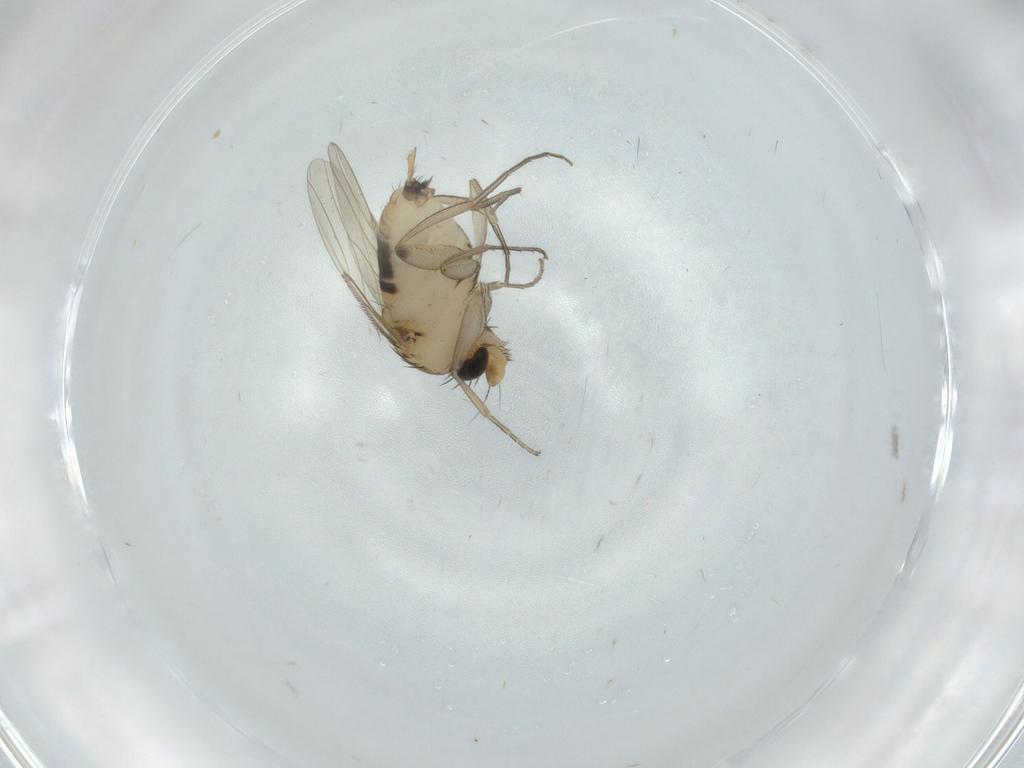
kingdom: Animalia
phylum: Arthropoda
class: Insecta
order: Diptera
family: Phoridae
